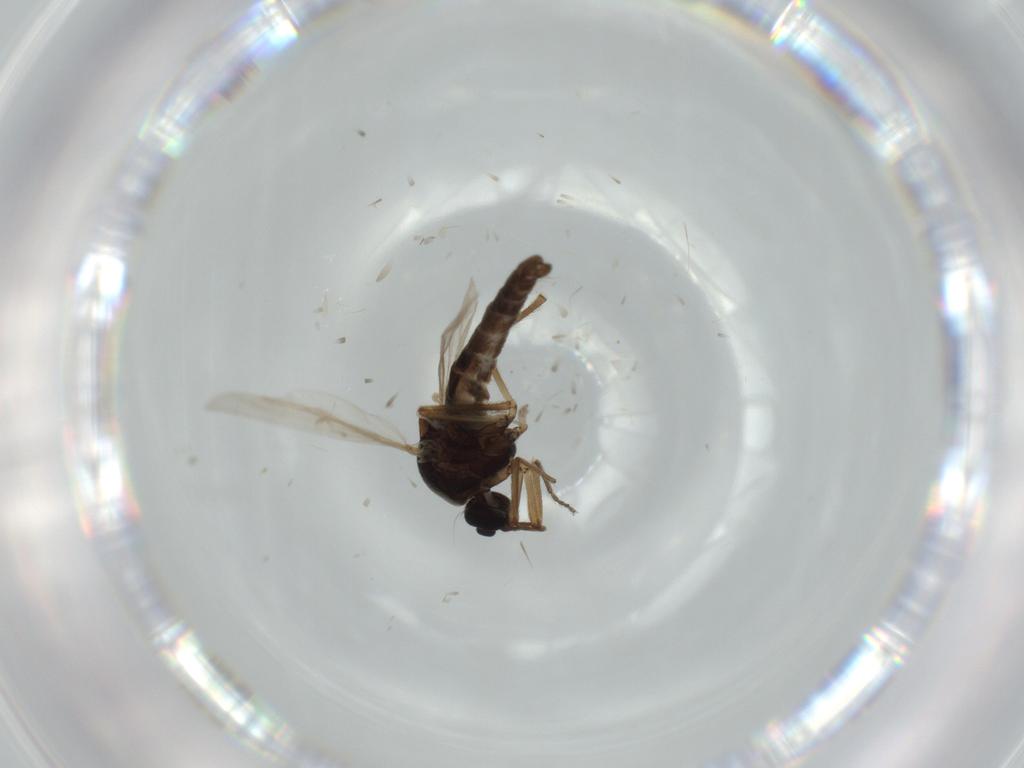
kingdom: Animalia
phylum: Arthropoda
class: Insecta
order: Diptera
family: Ceratopogonidae
